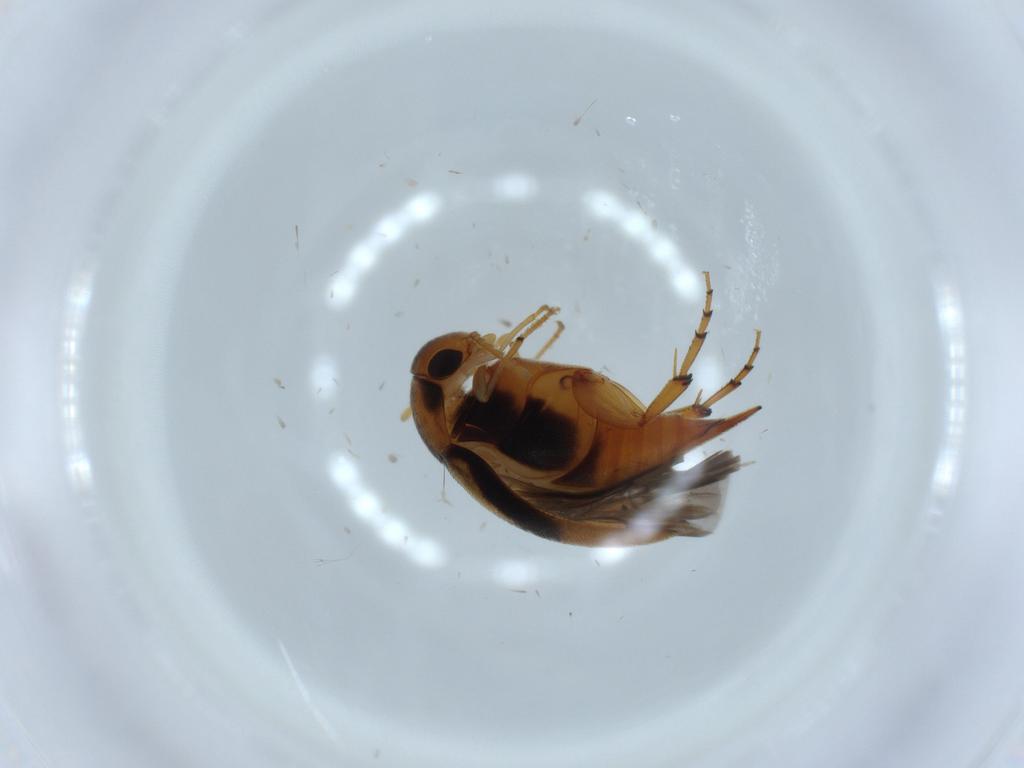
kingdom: Animalia
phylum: Arthropoda
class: Insecta
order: Coleoptera
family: Mordellidae
